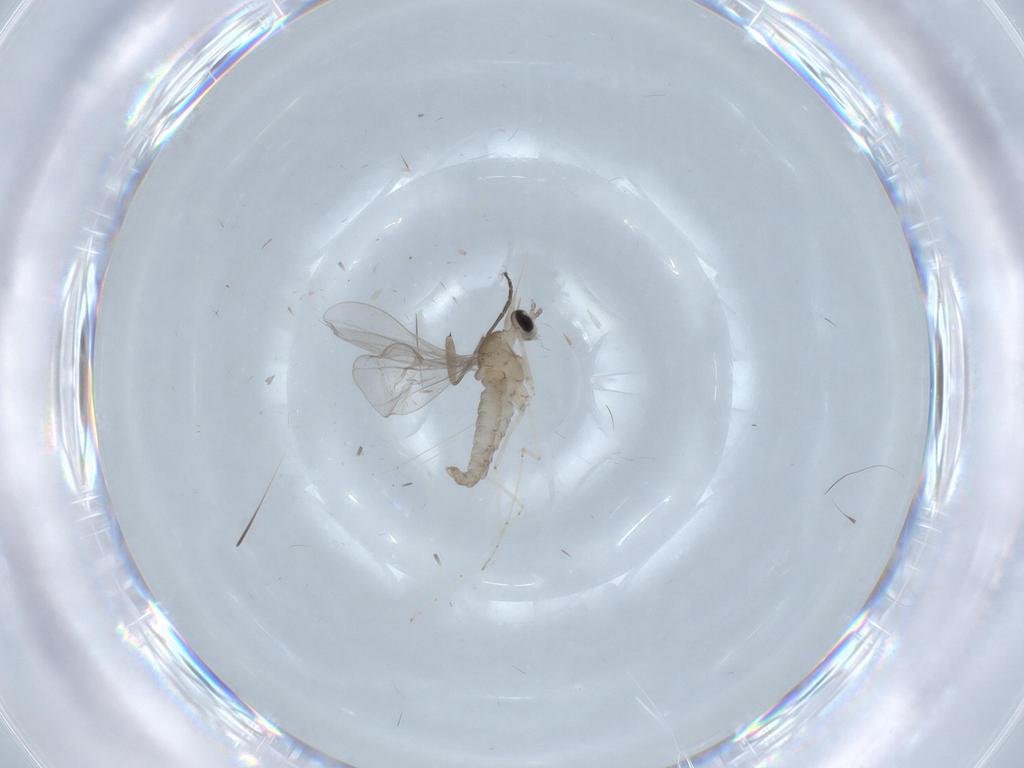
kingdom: Animalia
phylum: Arthropoda
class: Insecta
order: Diptera
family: Cecidomyiidae
